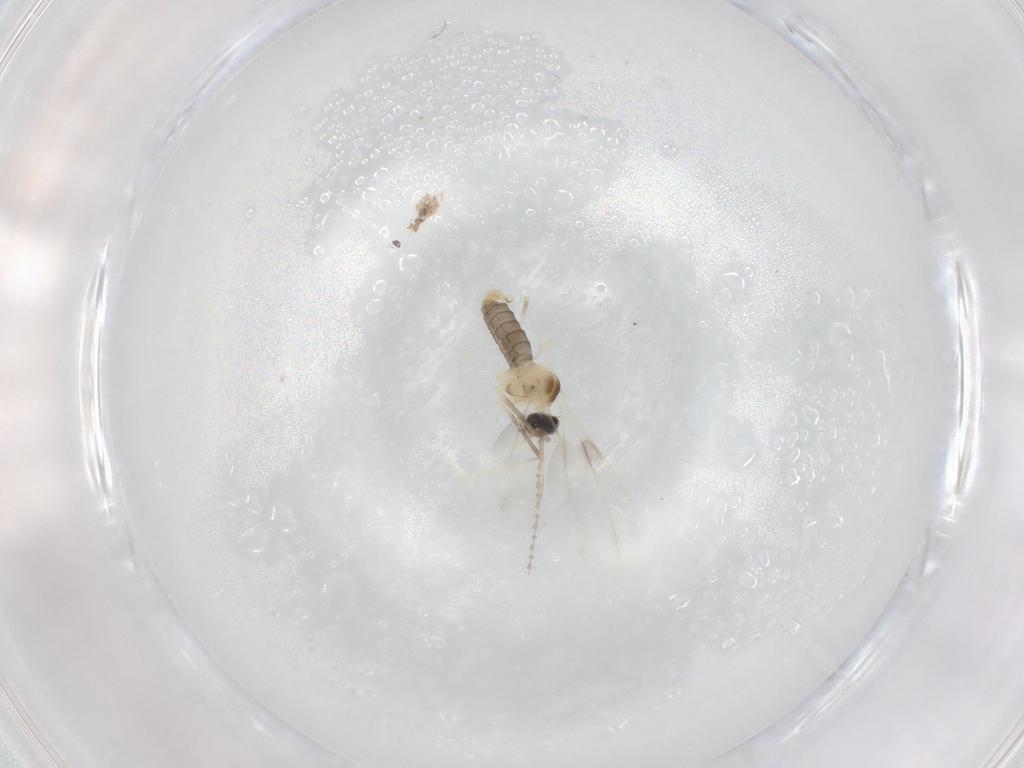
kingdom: Animalia
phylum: Arthropoda
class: Insecta
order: Diptera
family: Cecidomyiidae
